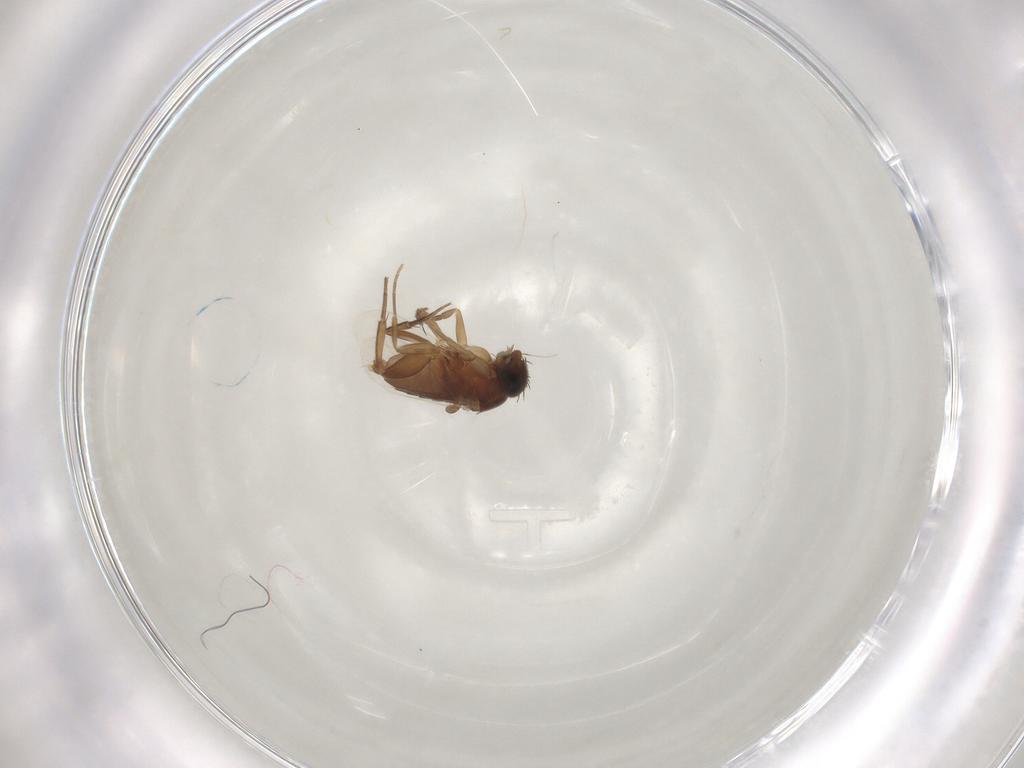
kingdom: Animalia
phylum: Arthropoda
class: Insecta
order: Diptera
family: Phoridae
